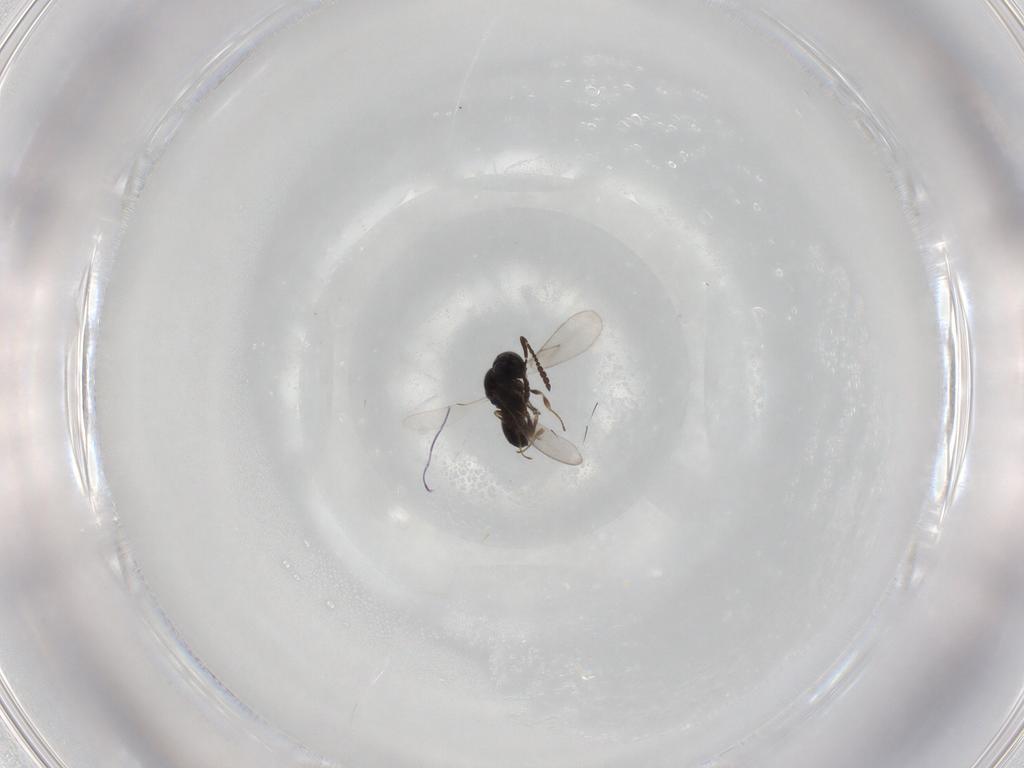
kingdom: Animalia
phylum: Arthropoda
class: Insecta
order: Hymenoptera
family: Scelionidae
